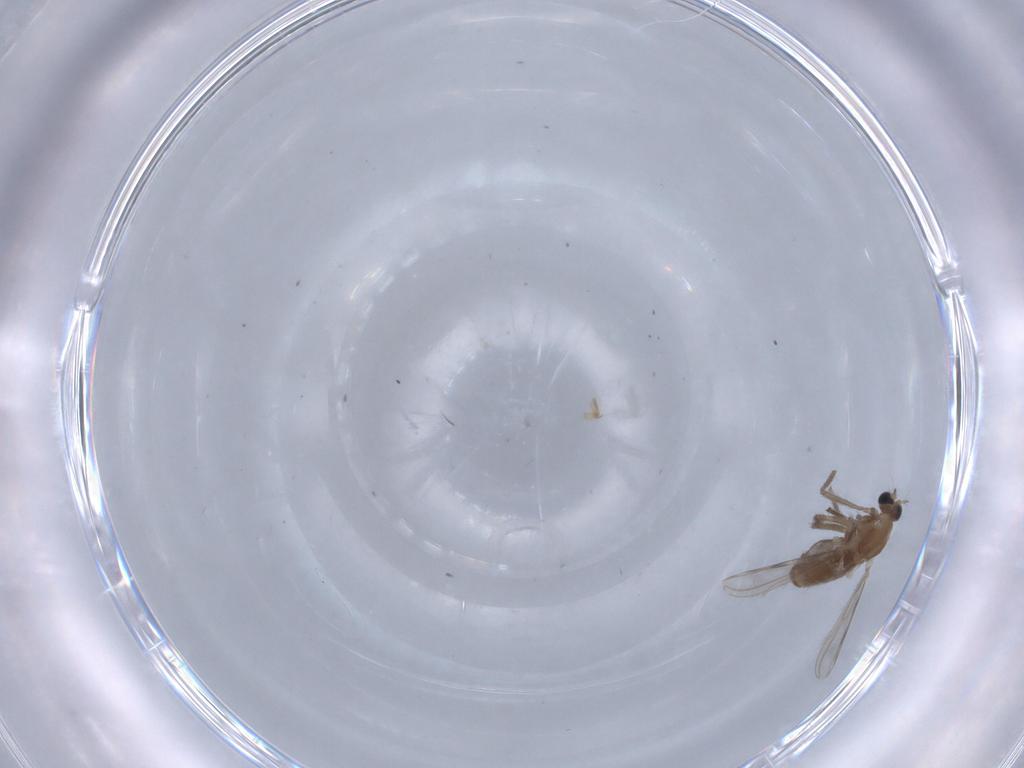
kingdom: Animalia
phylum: Arthropoda
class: Insecta
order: Diptera
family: Chironomidae
